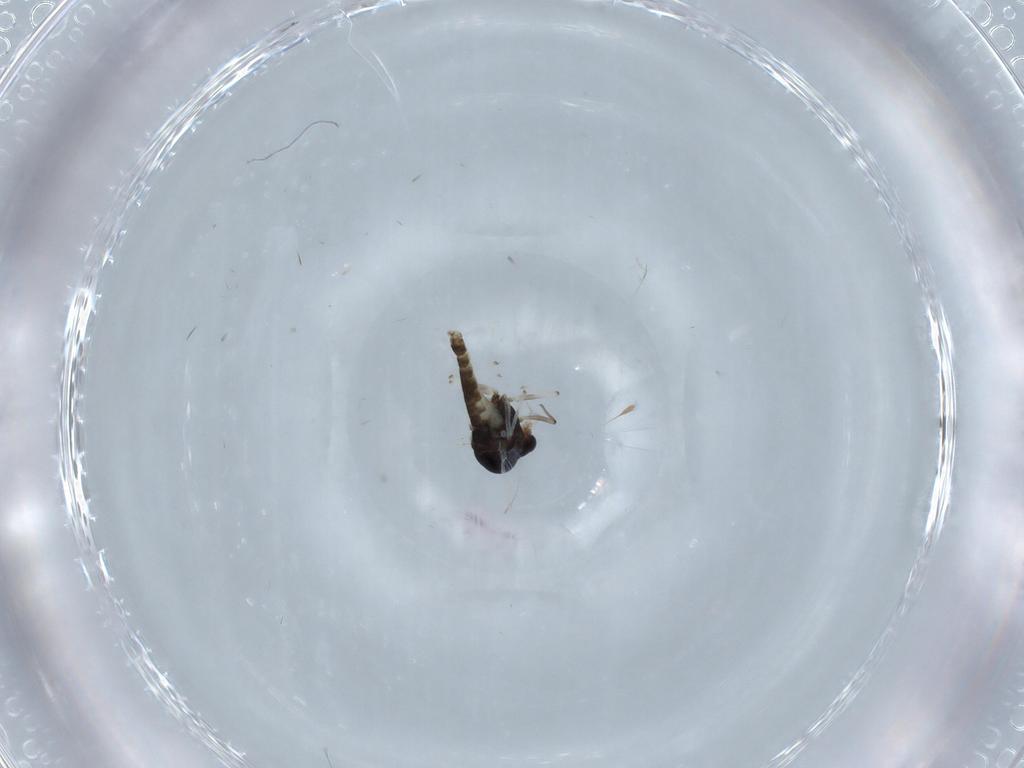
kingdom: Animalia
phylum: Arthropoda
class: Insecta
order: Diptera
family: Chironomidae
